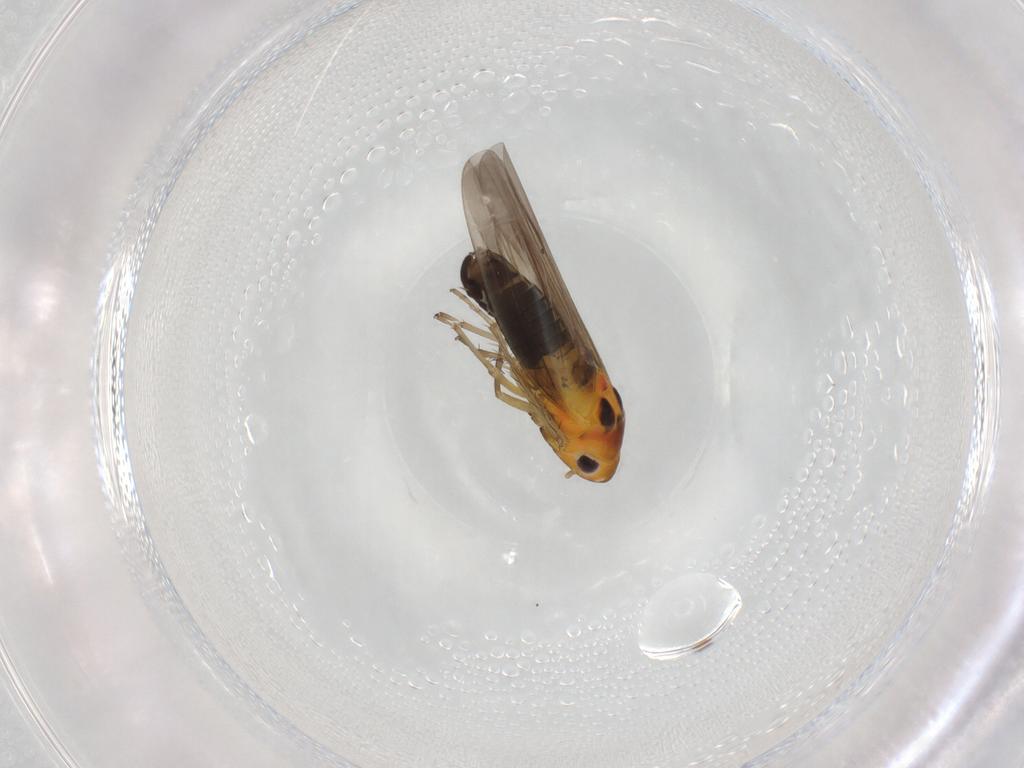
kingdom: Animalia
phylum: Arthropoda
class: Insecta
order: Hemiptera
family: Cicadellidae
